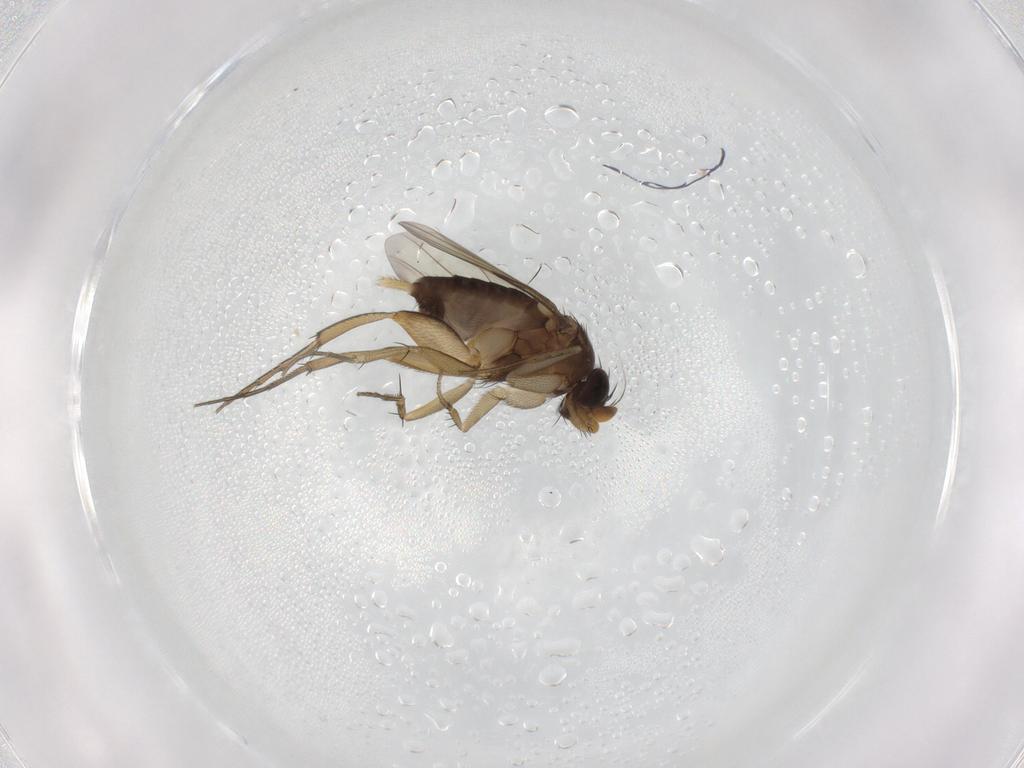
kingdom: Animalia
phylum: Arthropoda
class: Insecta
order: Diptera
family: Phoridae
